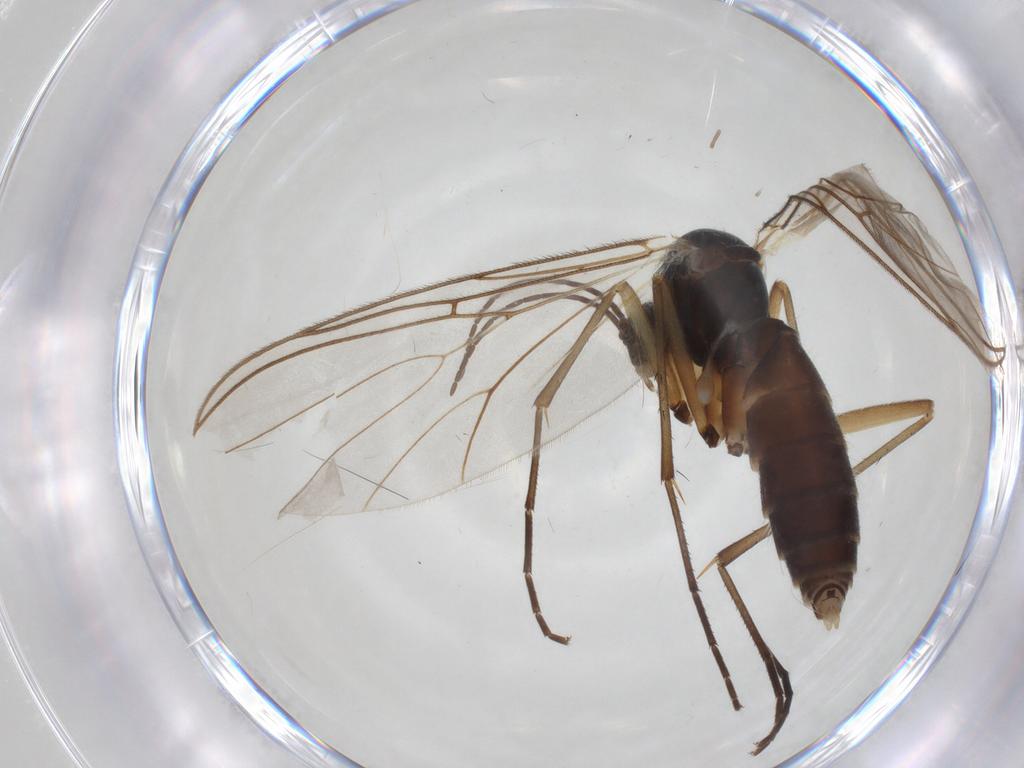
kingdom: Animalia
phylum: Arthropoda
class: Insecta
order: Diptera
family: Mycetophilidae
